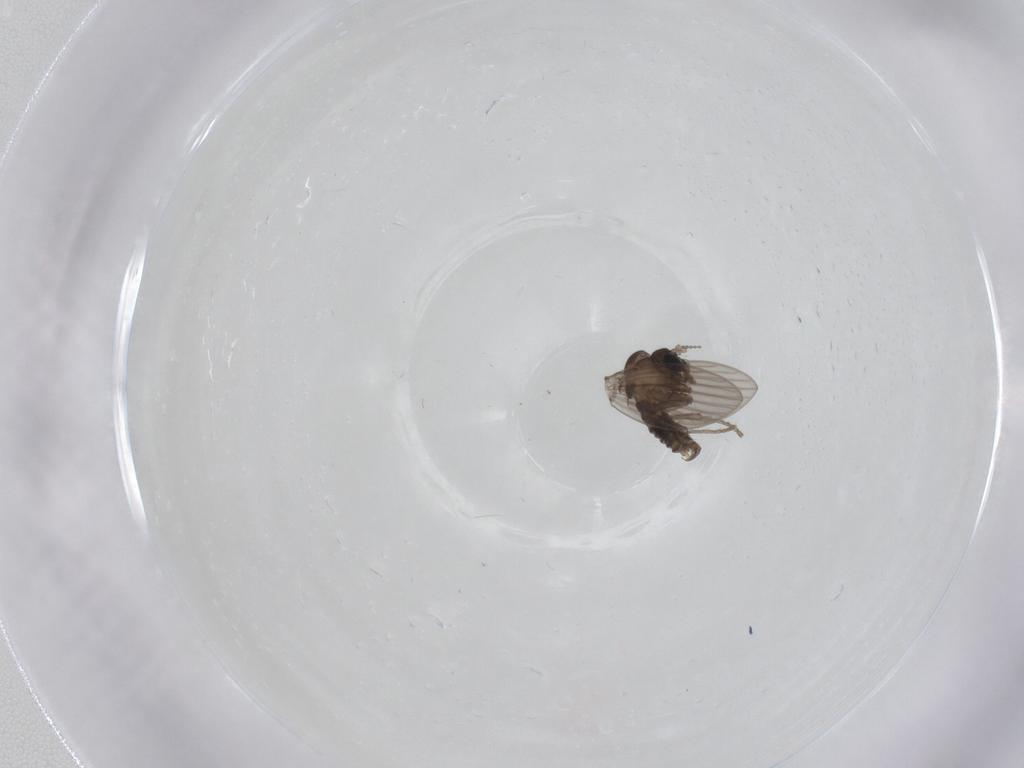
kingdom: Animalia
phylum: Arthropoda
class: Insecta
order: Diptera
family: Psychodidae
